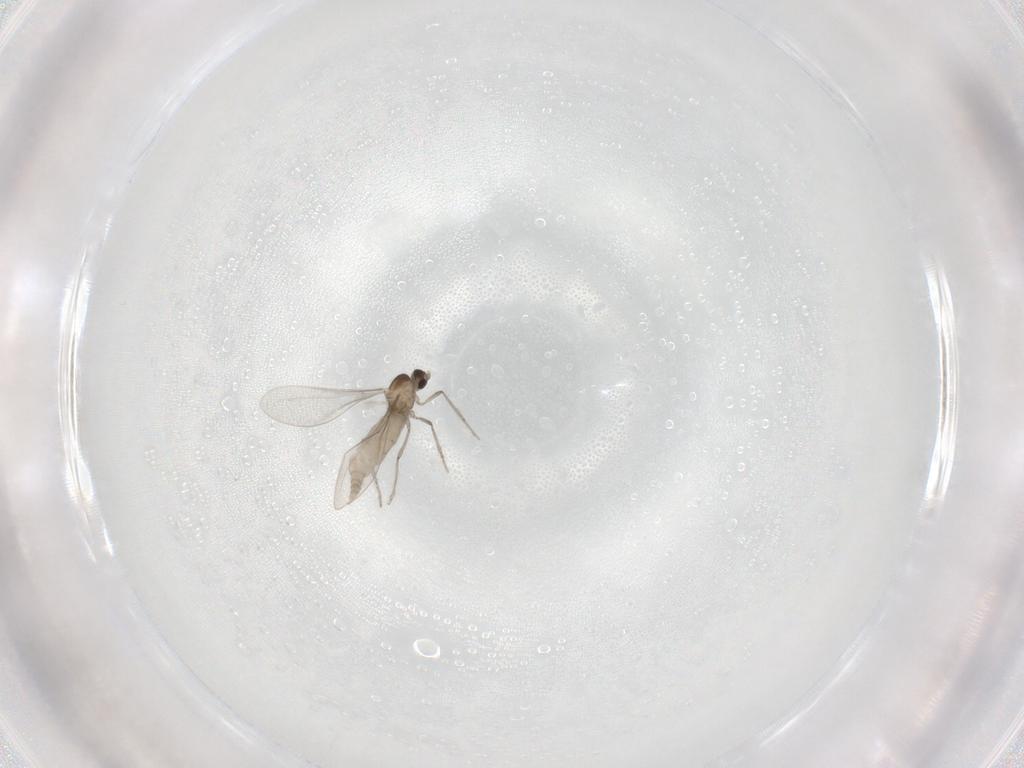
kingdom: Animalia
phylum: Arthropoda
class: Insecta
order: Diptera
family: Cecidomyiidae
